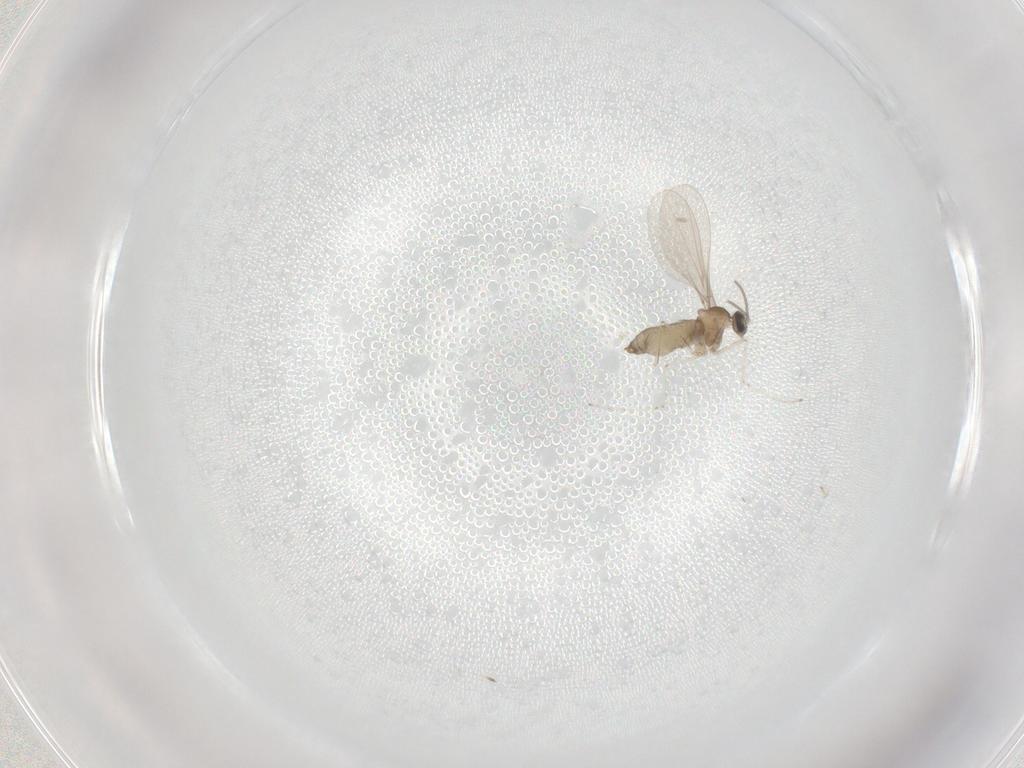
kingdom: Animalia
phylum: Arthropoda
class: Insecta
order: Diptera
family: Cecidomyiidae
